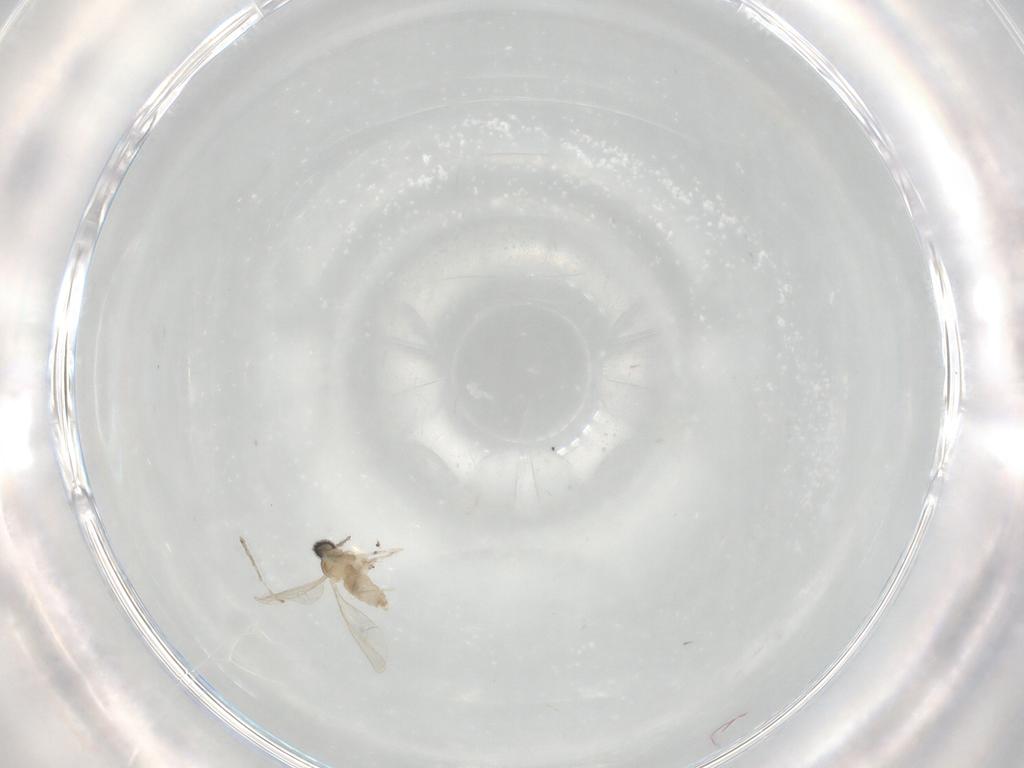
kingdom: Animalia
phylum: Arthropoda
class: Insecta
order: Diptera
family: Cecidomyiidae
